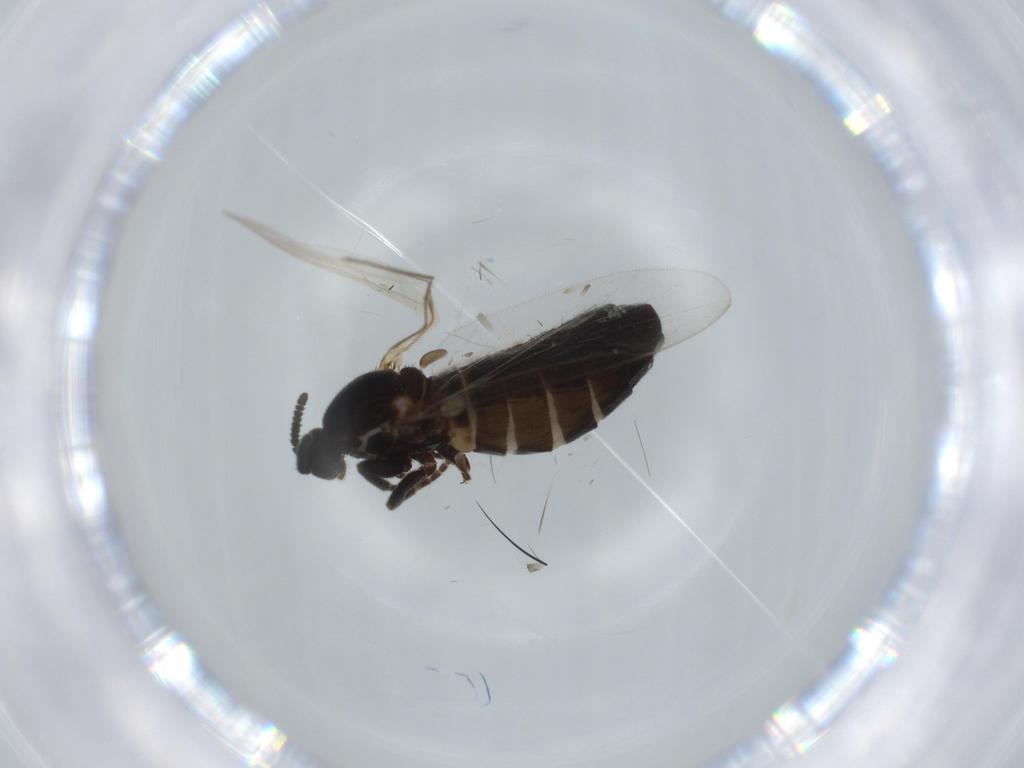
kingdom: Animalia
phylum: Arthropoda
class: Insecta
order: Diptera
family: Scatopsidae
